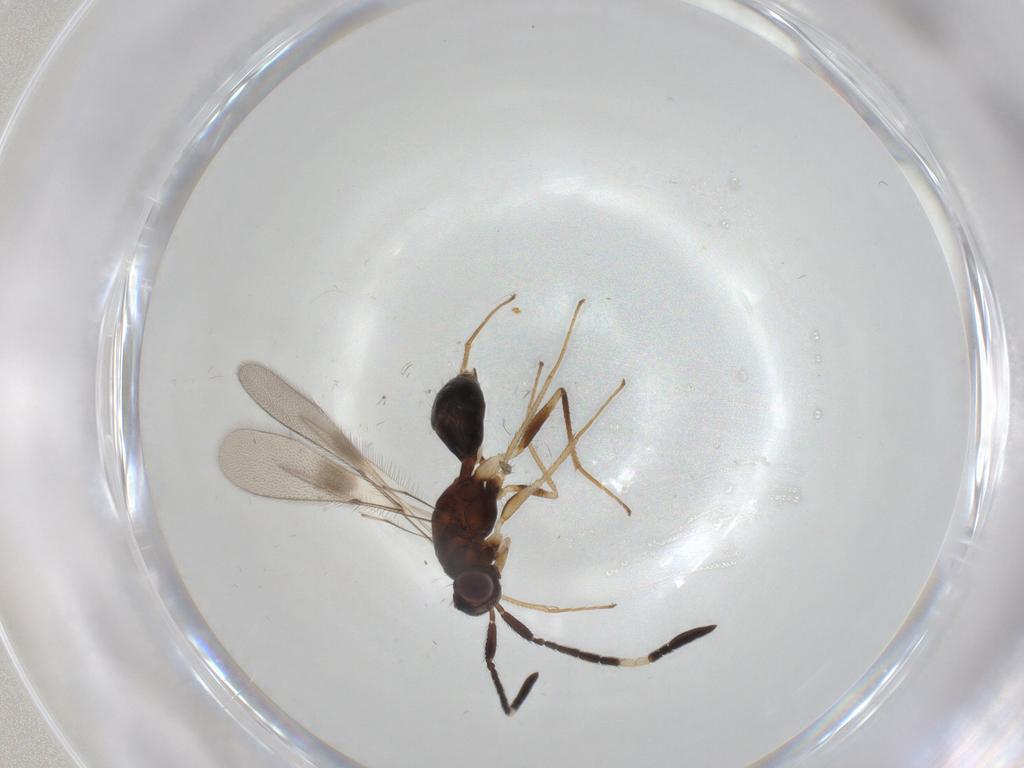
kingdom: Animalia
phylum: Arthropoda
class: Insecta
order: Hymenoptera
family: Mymaridae
